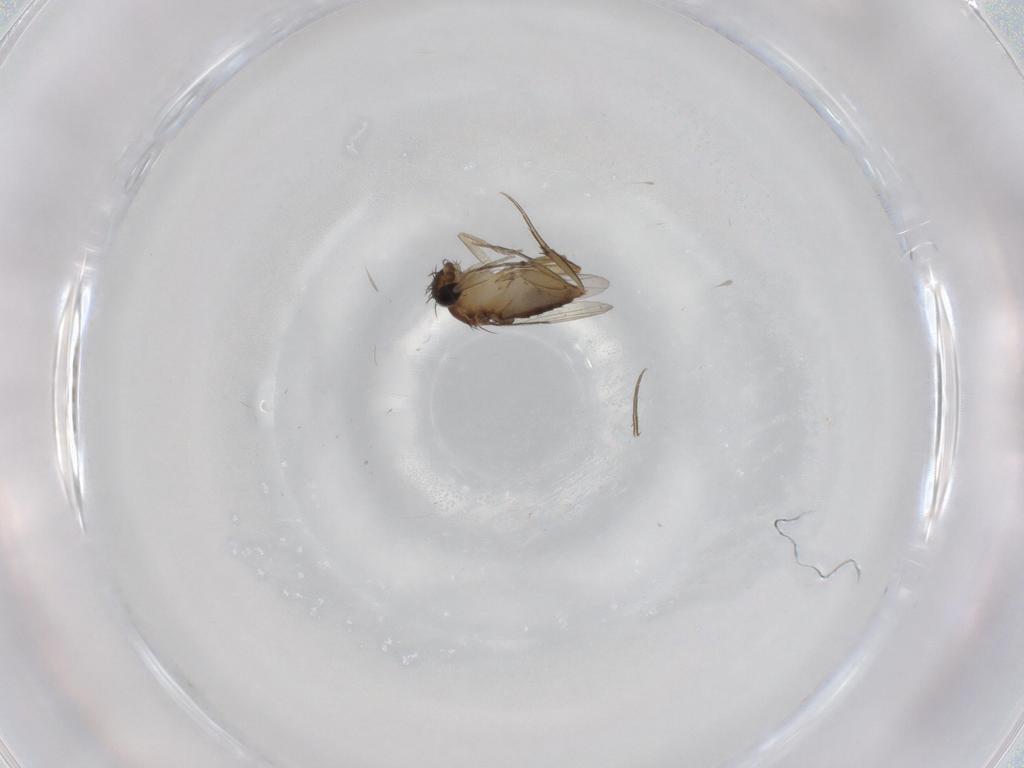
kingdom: Animalia
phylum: Arthropoda
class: Insecta
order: Diptera
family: Phoridae
